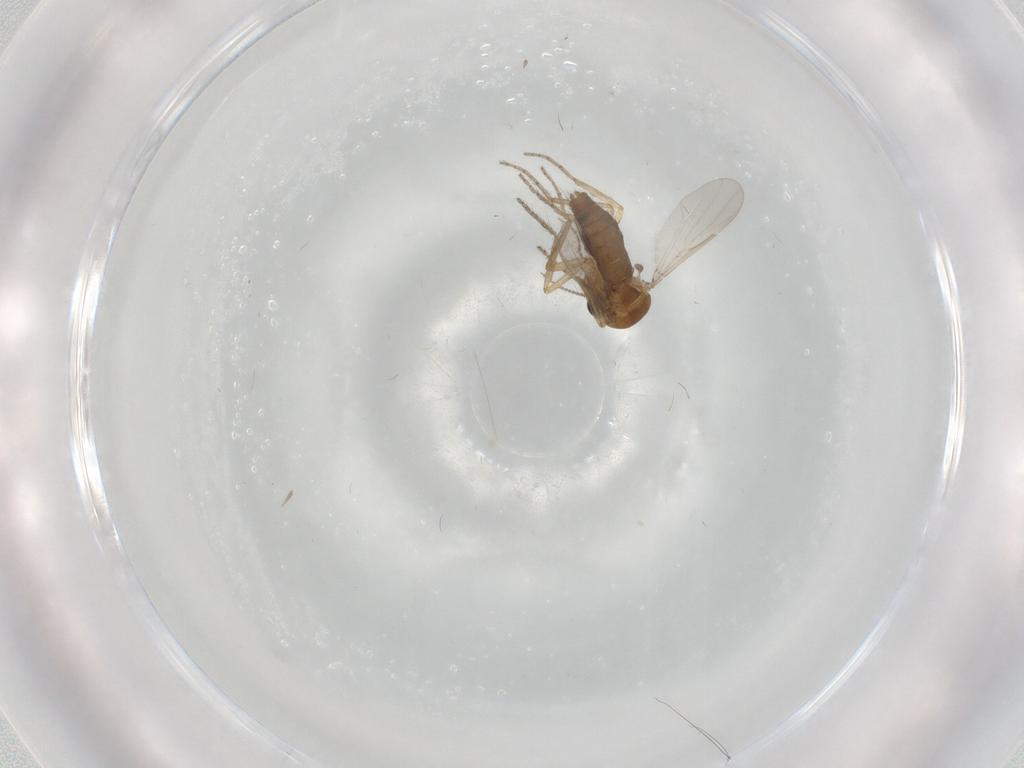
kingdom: Animalia
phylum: Arthropoda
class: Insecta
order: Diptera
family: Ceratopogonidae
